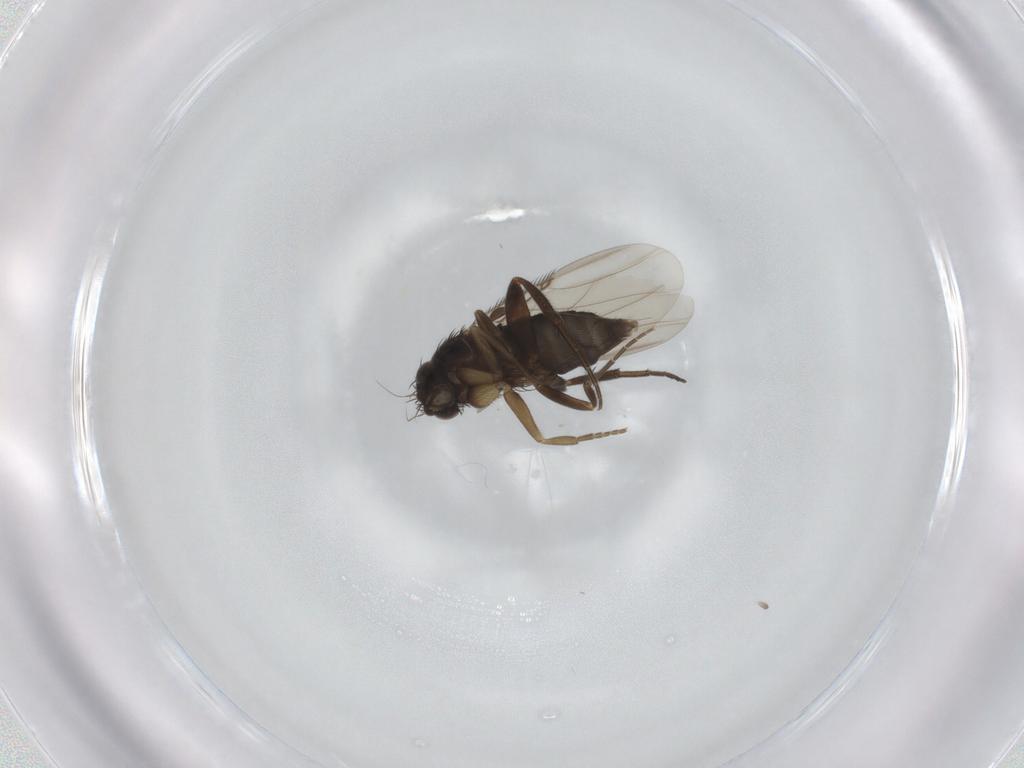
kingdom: Animalia
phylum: Arthropoda
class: Insecta
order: Diptera
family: Phoridae
